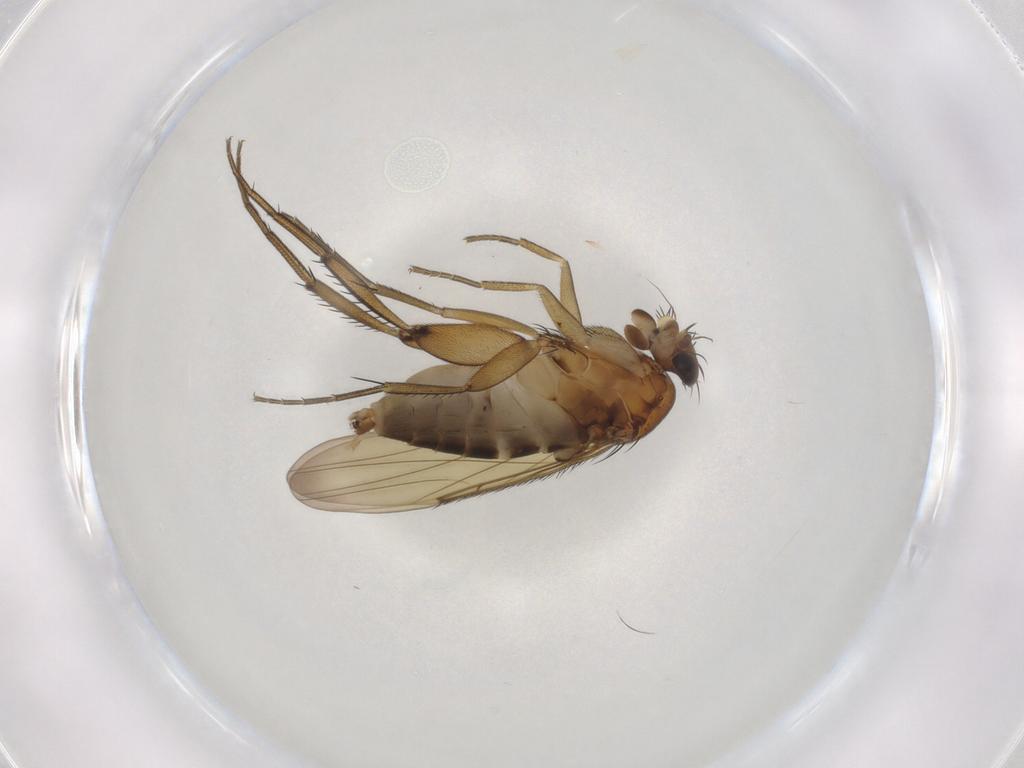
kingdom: Animalia
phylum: Arthropoda
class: Insecta
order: Diptera
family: Phoridae
